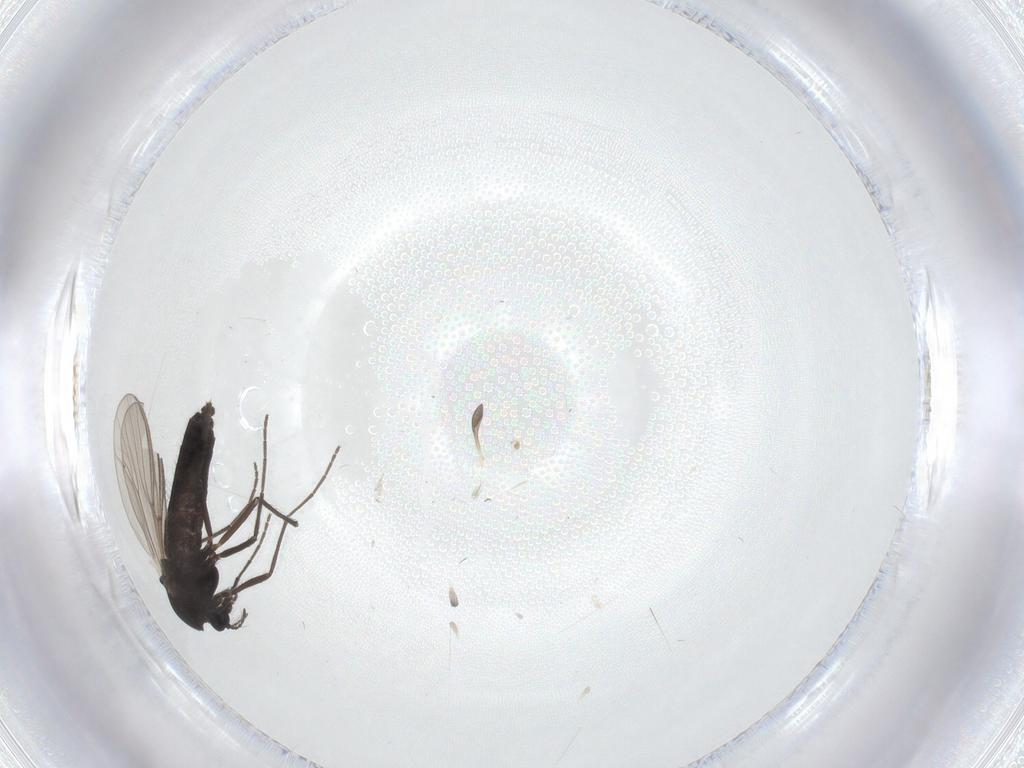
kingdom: Animalia
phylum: Arthropoda
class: Insecta
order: Diptera
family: Chironomidae
